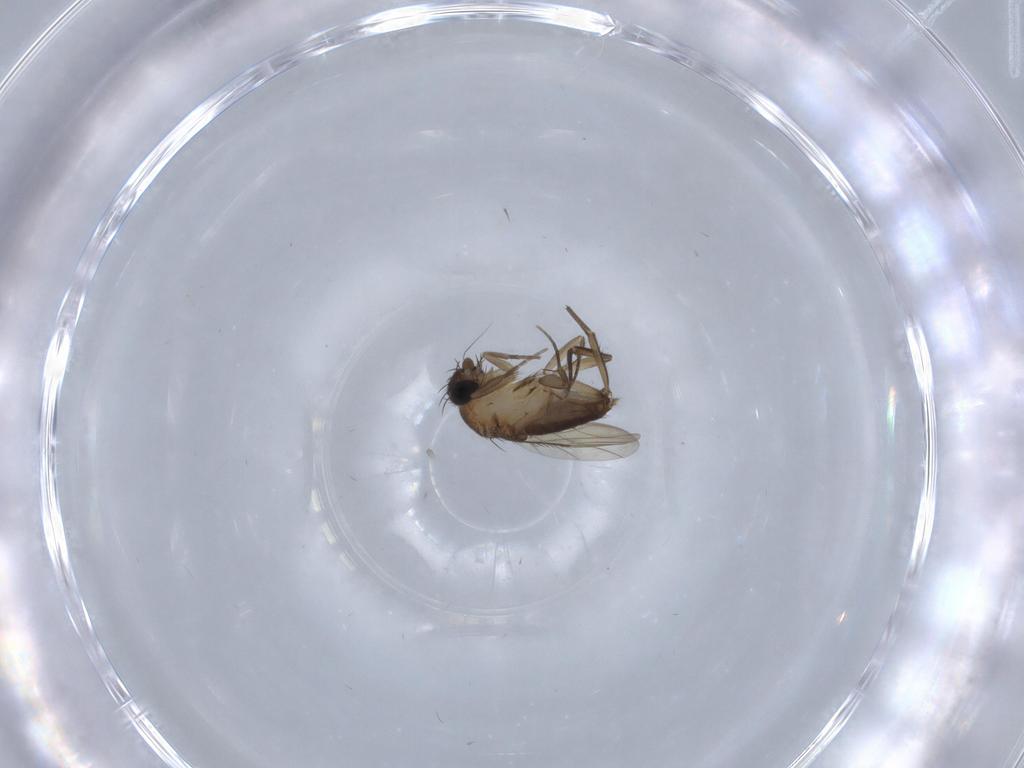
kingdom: Animalia
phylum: Arthropoda
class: Insecta
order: Diptera
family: Phoridae
